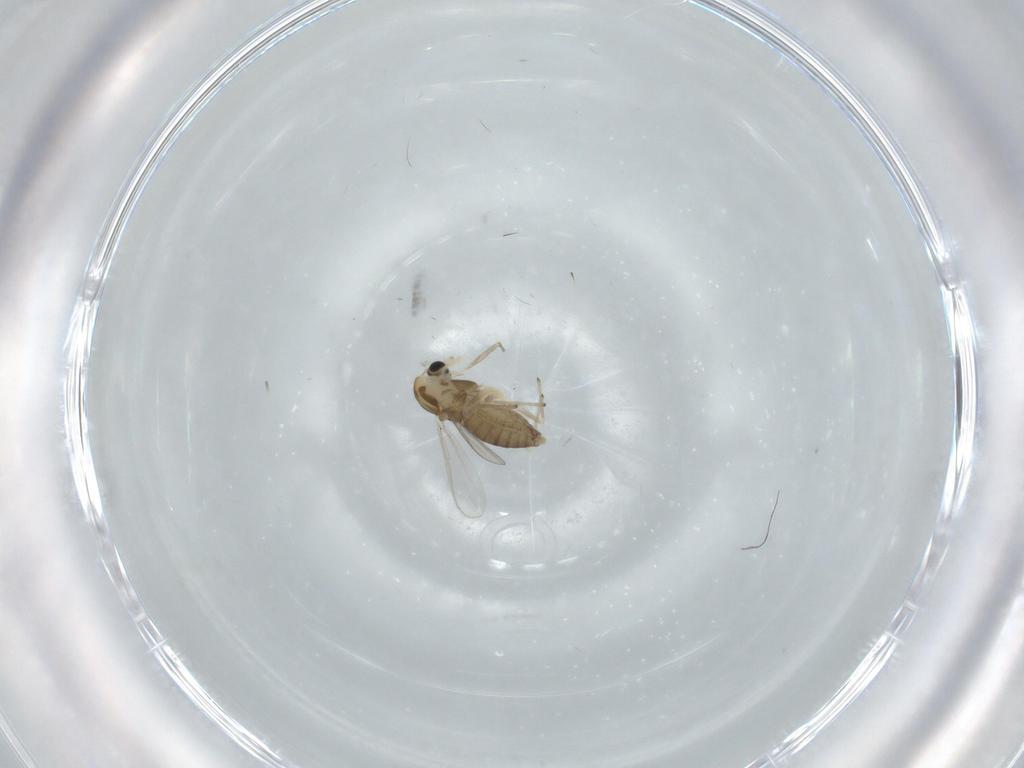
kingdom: Animalia
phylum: Arthropoda
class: Insecta
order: Diptera
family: Chironomidae
